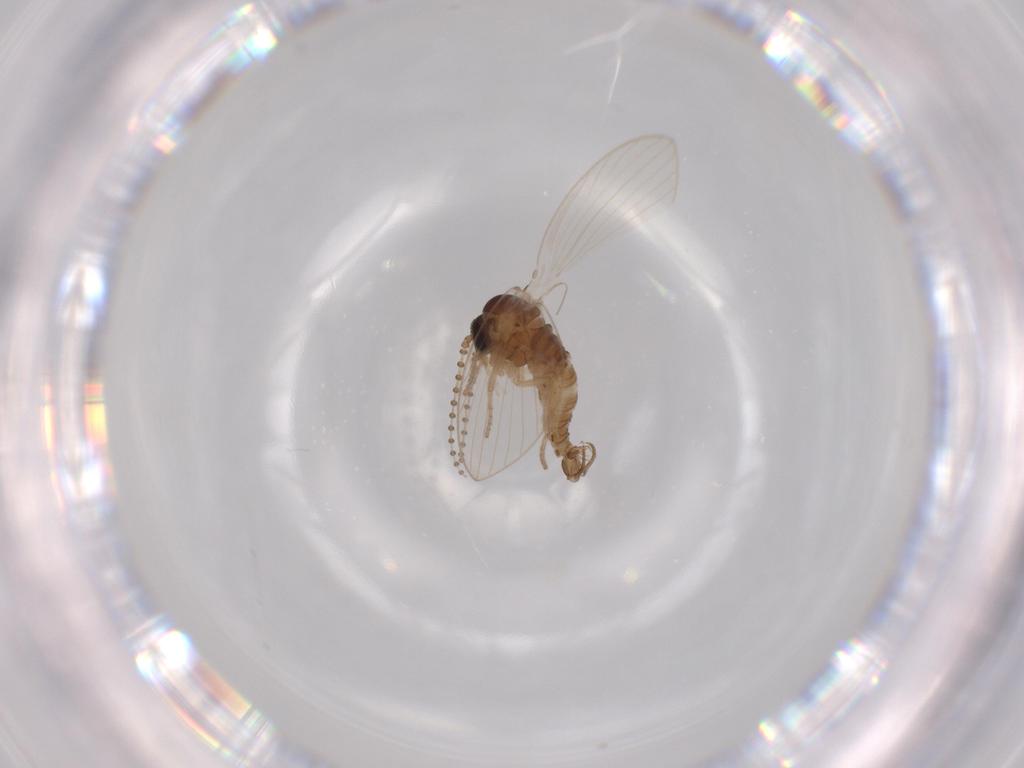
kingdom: Animalia
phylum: Arthropoda
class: Insecta
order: Diptera
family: Psychodidae
